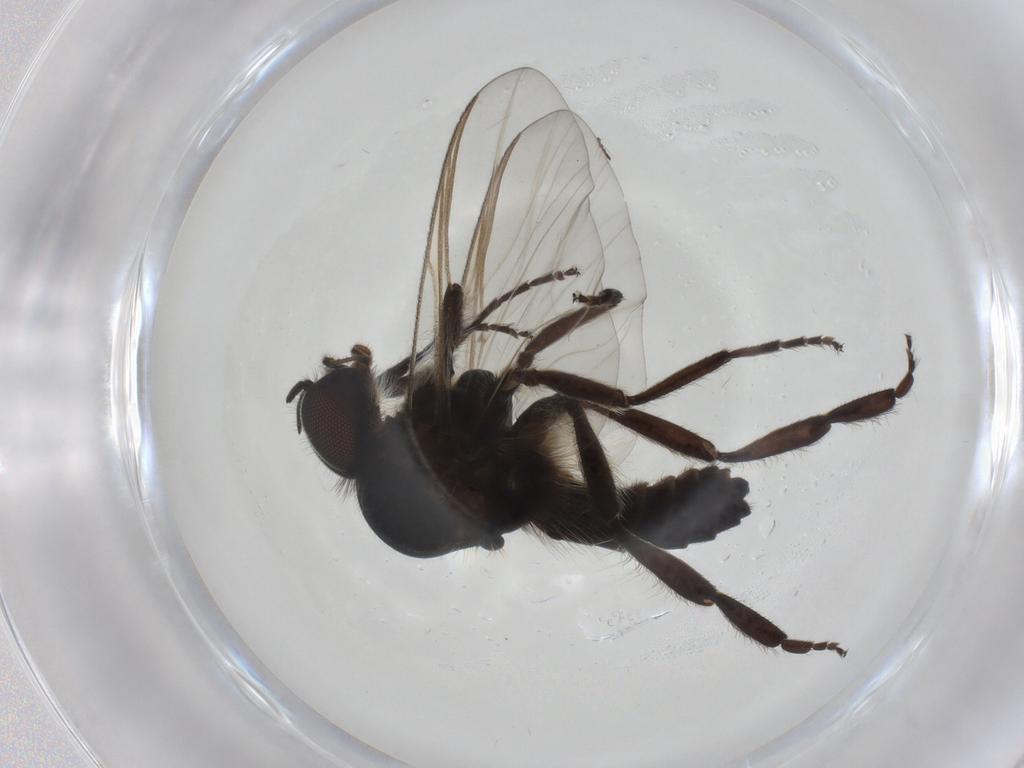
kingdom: Animalia
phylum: Arthropoda
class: Insecta
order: Diptera
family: Simuliidae
